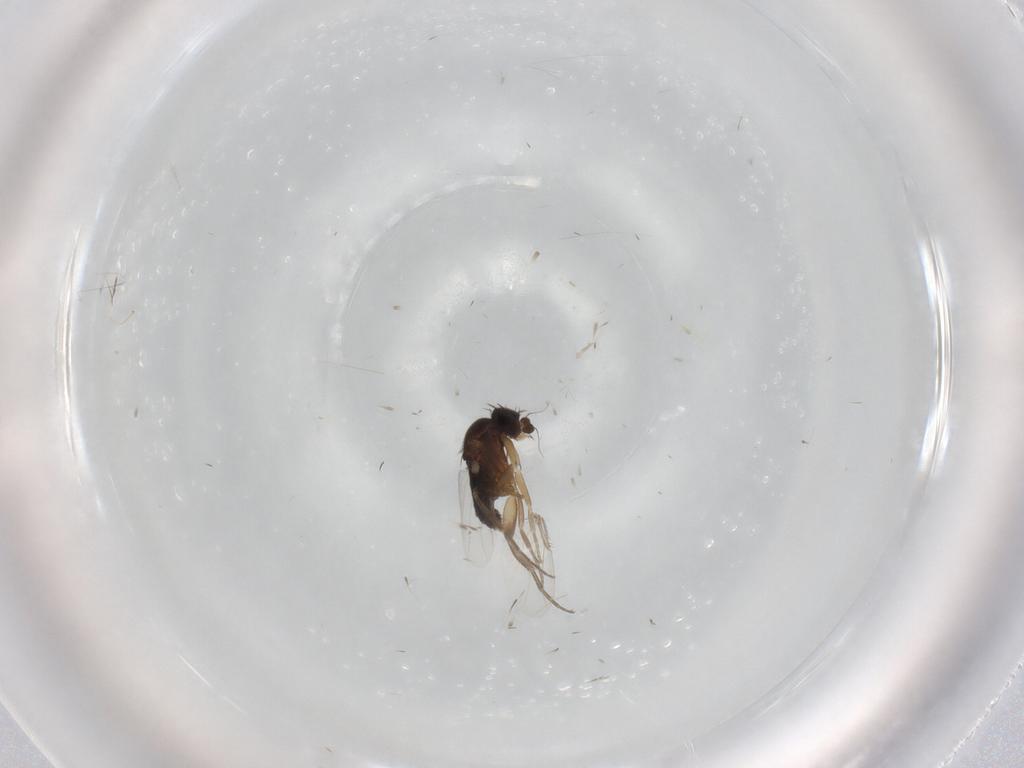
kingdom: Animalia
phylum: Arthropoda
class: Insecta
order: Diptera
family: Phoridae
